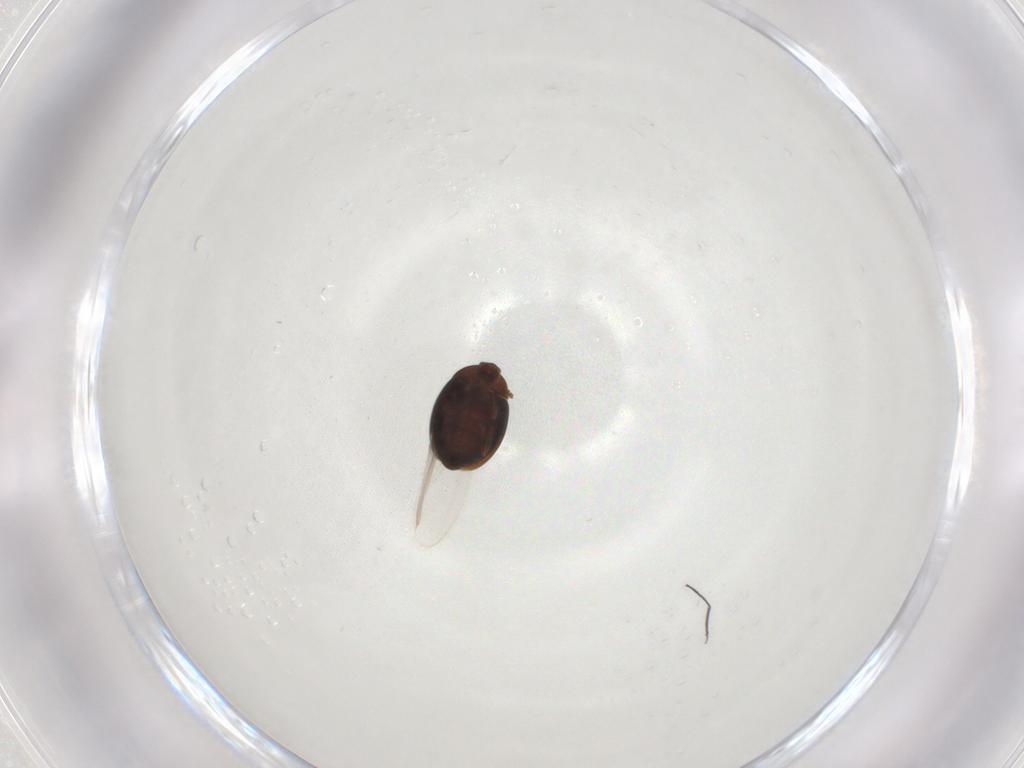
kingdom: Animalia
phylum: Arthropoda
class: Insecta
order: Coleoptera
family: Corylophidae
